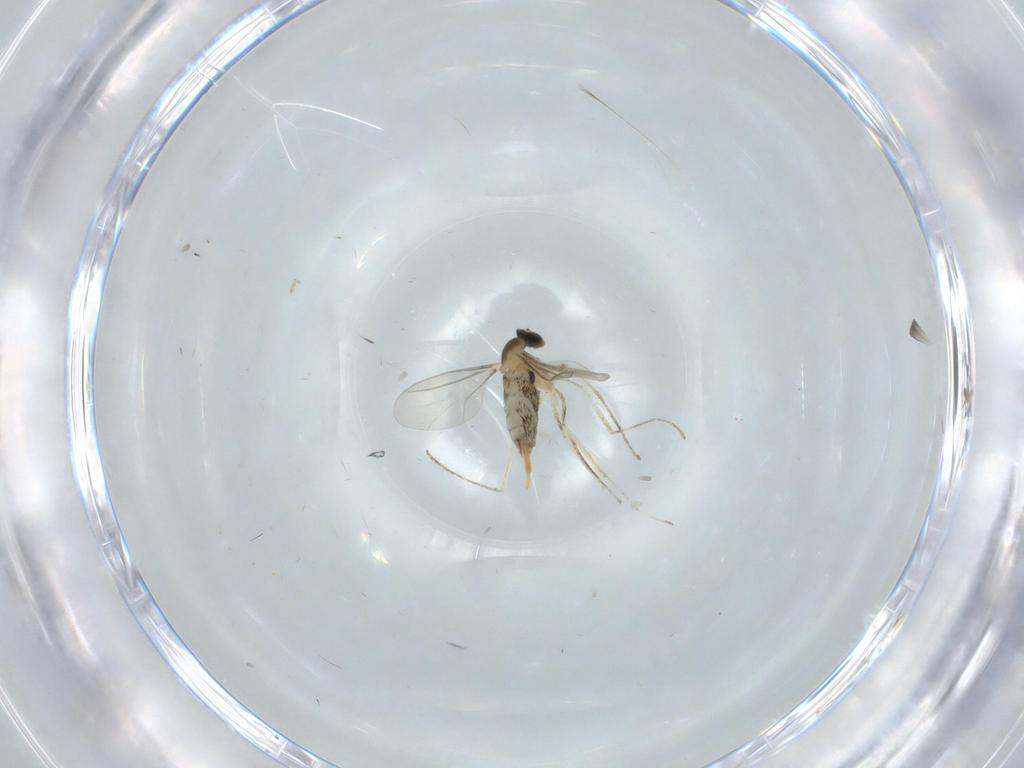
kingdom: Animalia
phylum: Arthropoda
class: Insecta
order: Diptera
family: Cecidomyiidae
